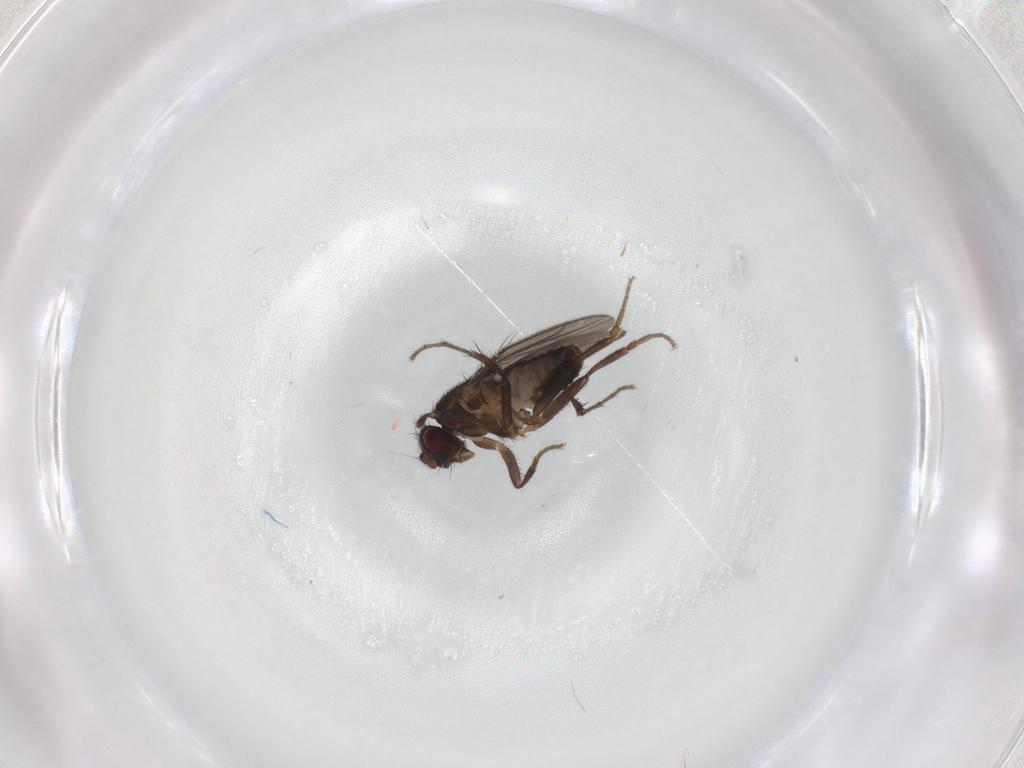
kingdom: Animalia
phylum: Arthropoda
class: Insecta
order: Diptera
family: Sphaeroceridae
